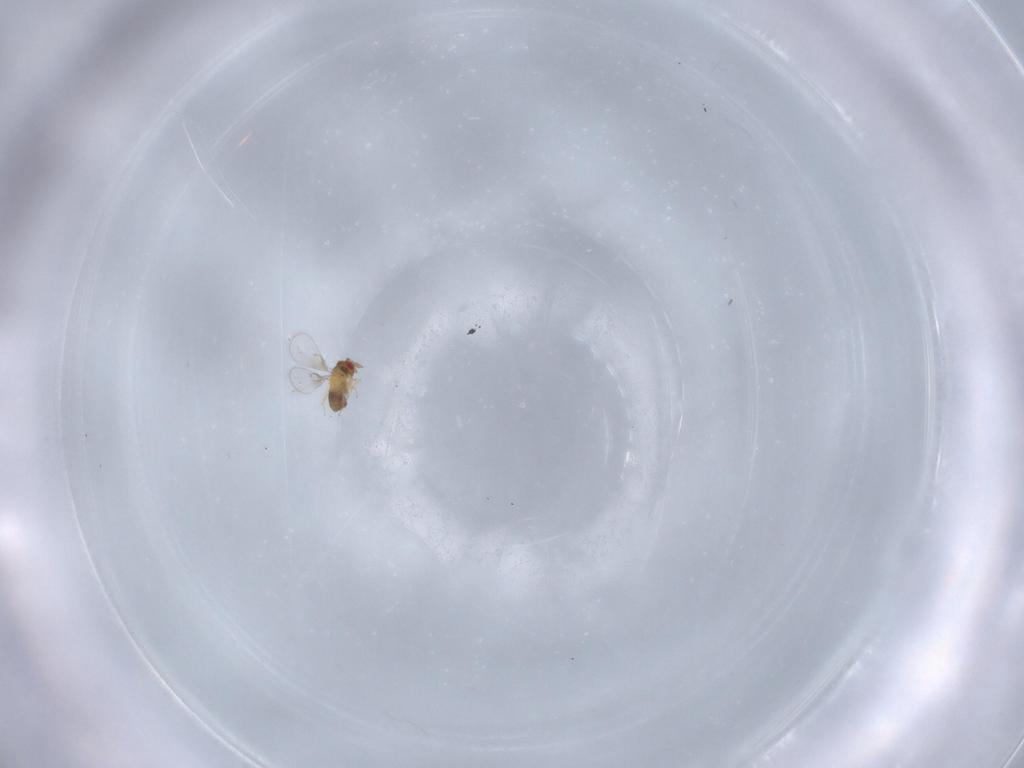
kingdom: Animalia
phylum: Arthropoda
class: Insecta
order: Hymenoptera
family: Trichogrammatidae
